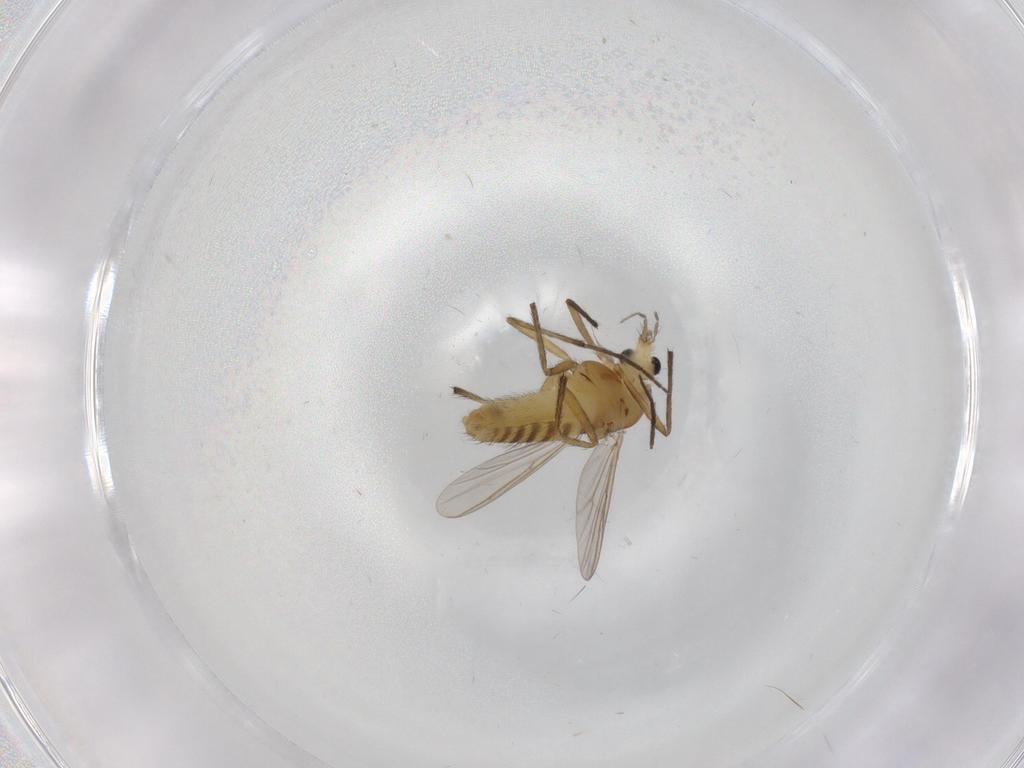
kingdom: Animalia
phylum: Arthropoda
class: Insecta
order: Diptera
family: Chironomidae
